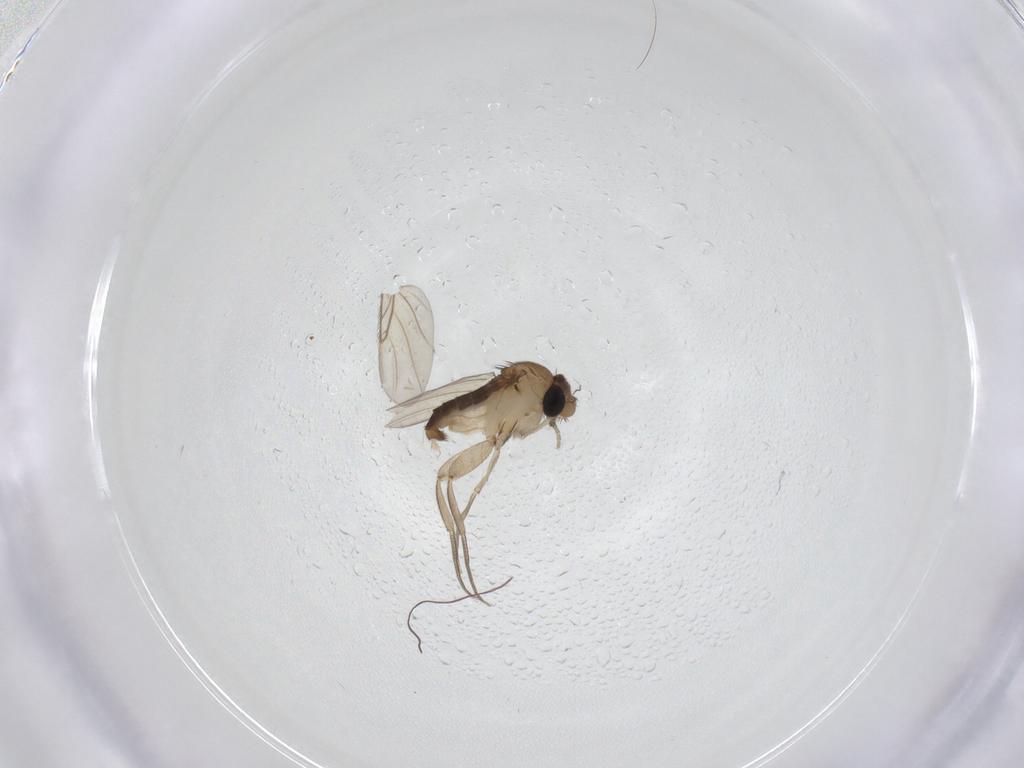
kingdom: Animalia
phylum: Arthropoda
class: Insecta
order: Diptera
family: Phoridae
